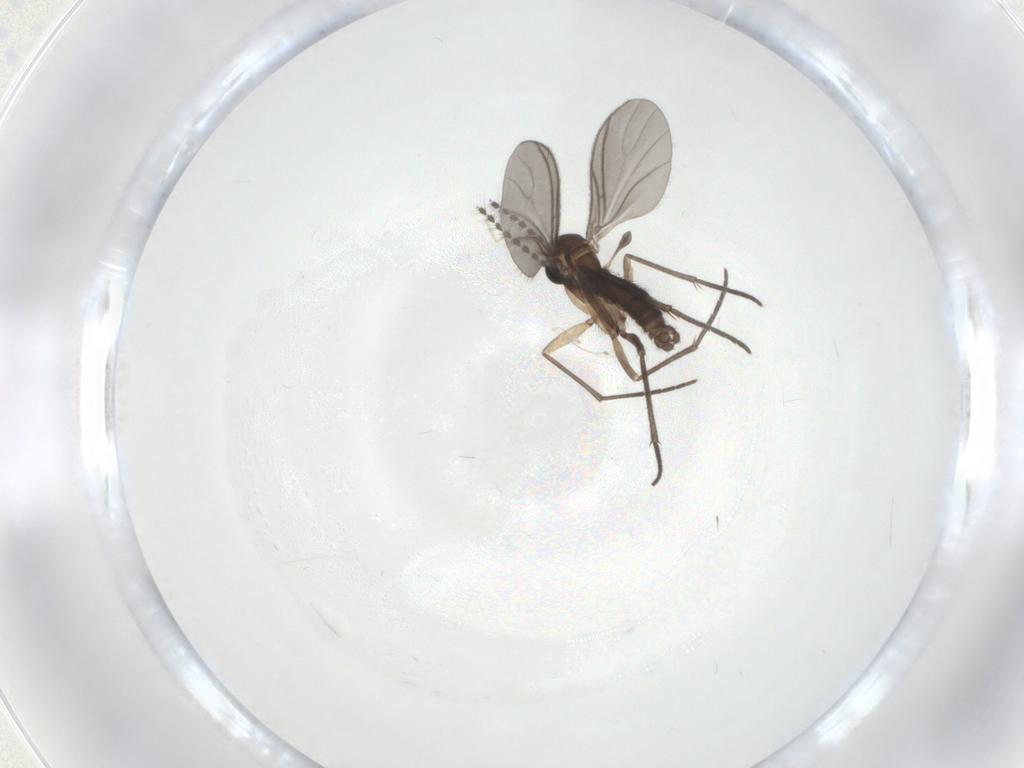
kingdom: Animalia
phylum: Arthropoda
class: Insecta
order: Diptera
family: Sciaridae
